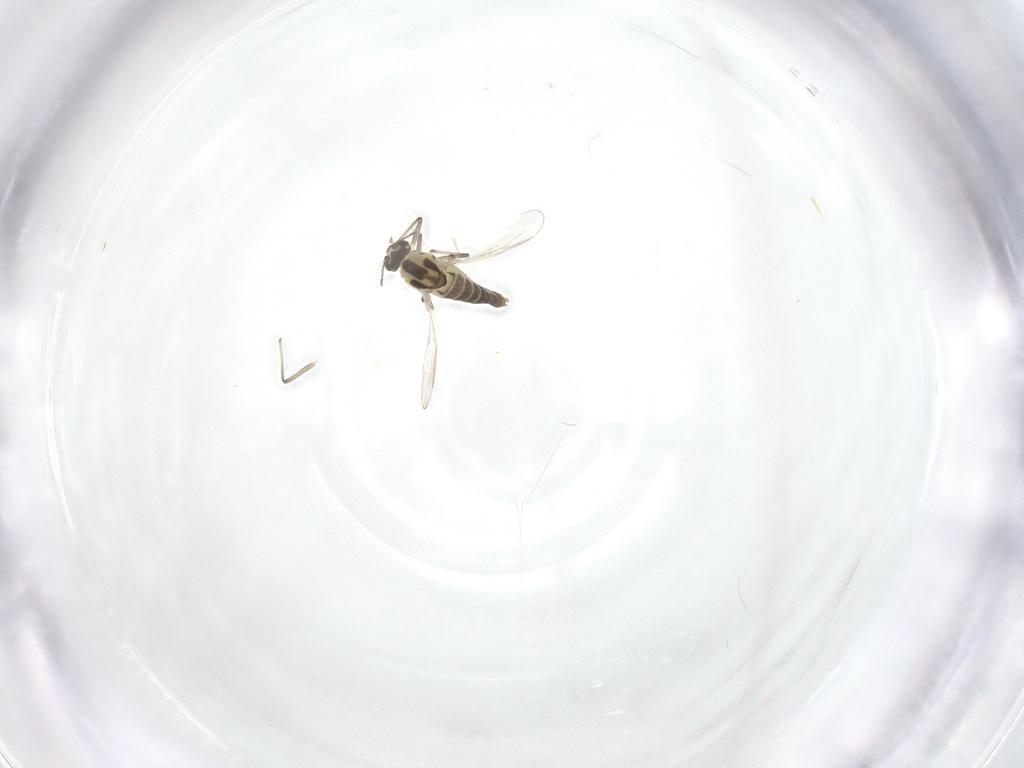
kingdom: Animalia
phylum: Arthropoda
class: Insecta
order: Diptera
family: Chironomidae
